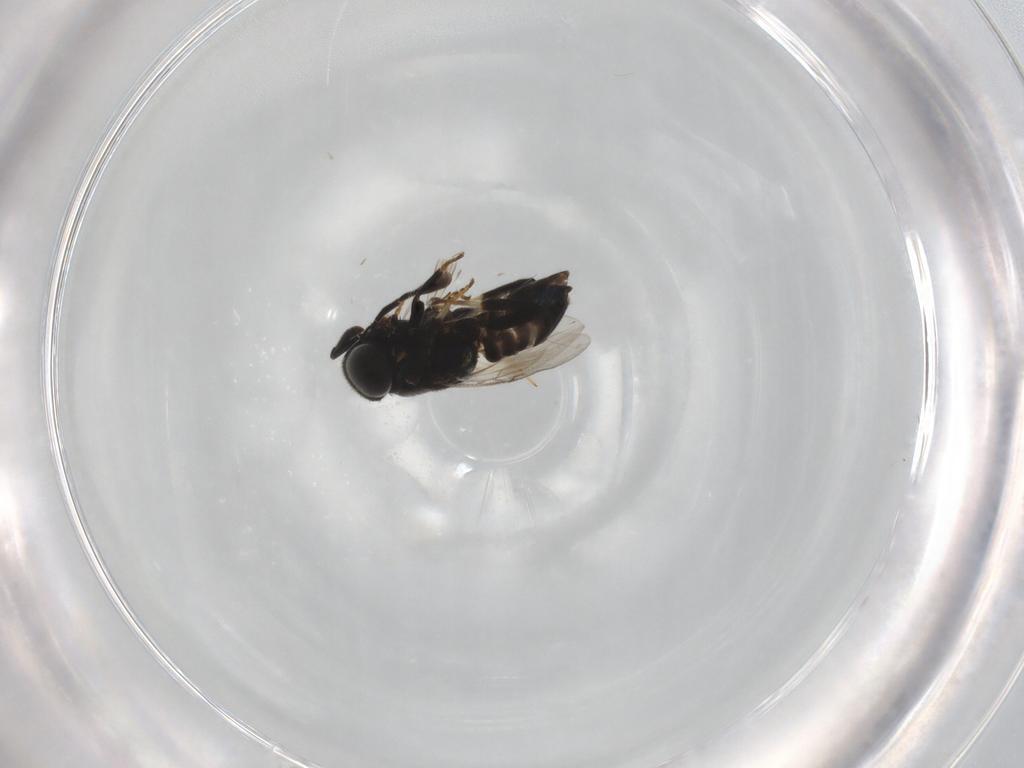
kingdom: Animalia
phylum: Arthropoda
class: Insecta
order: Hymenoptera
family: Encyrtidae
